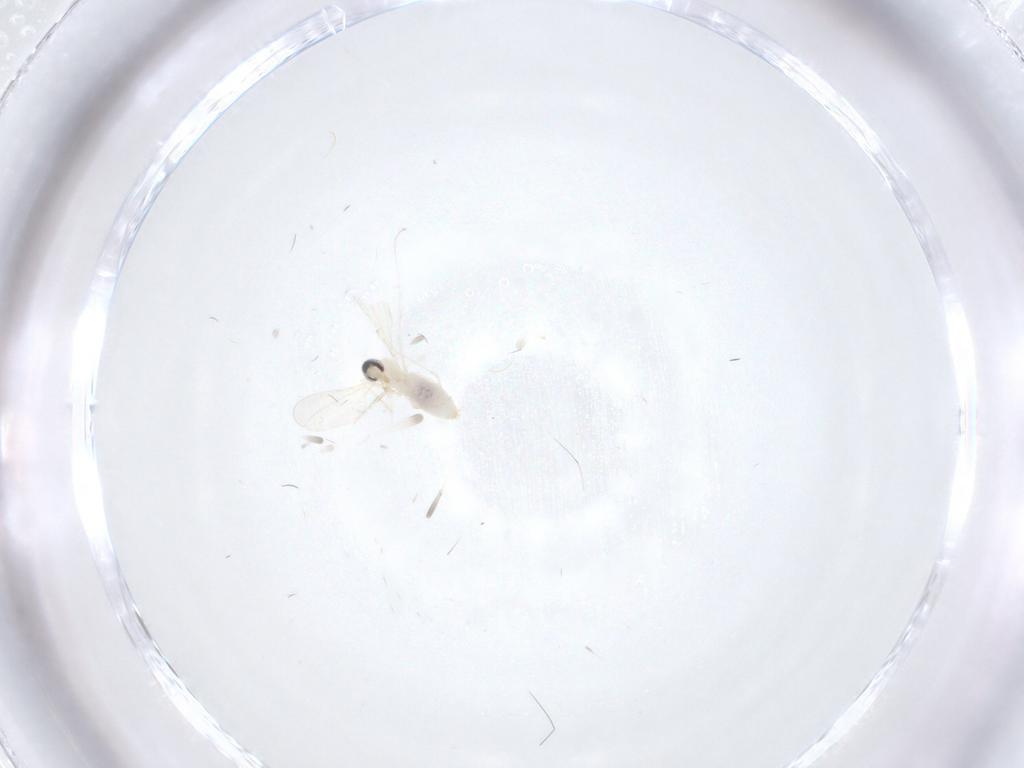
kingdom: Animalia
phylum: Arthropoda
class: Insecta
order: Diptera
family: Cecidomyiidae
